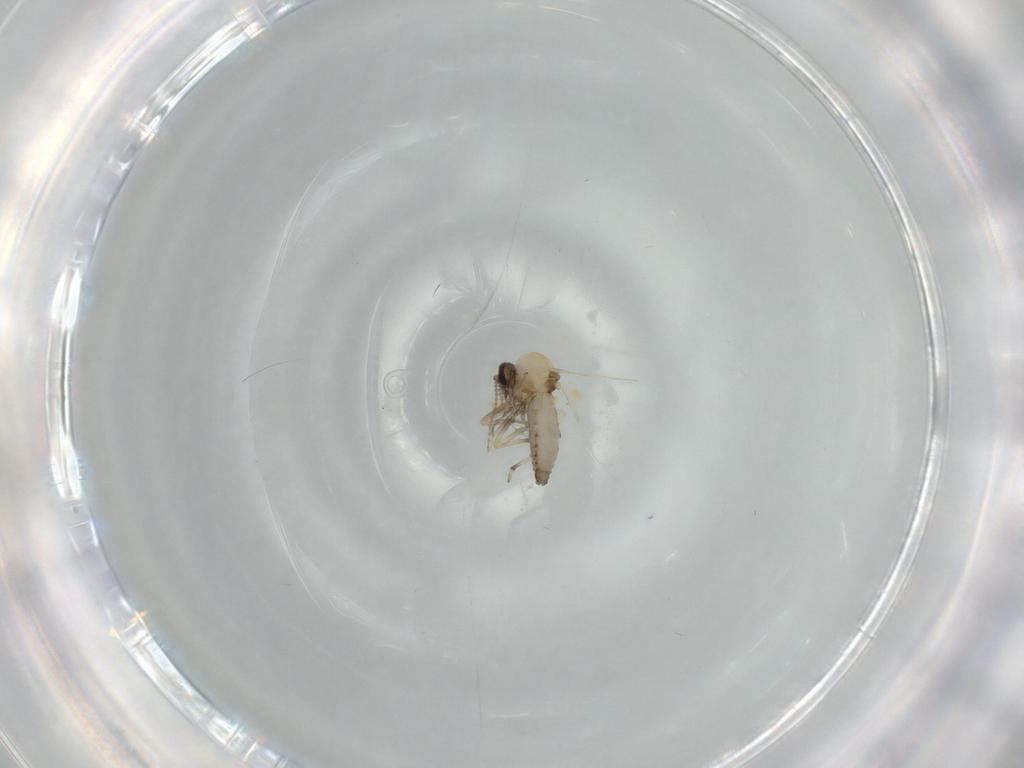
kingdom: Animalia
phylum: Arthropoda
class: Insecta
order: Diptera
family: Ceratopogonidae
